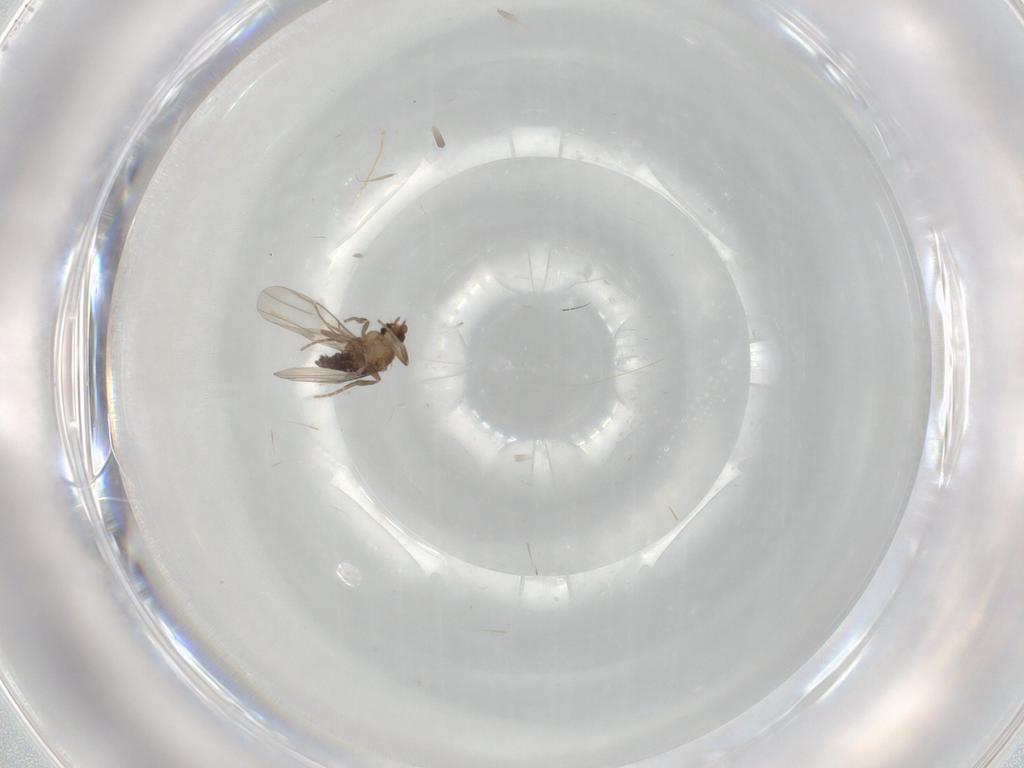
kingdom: Animalia
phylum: Arthropoda
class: Insecta
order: Diptera
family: Phoridae
